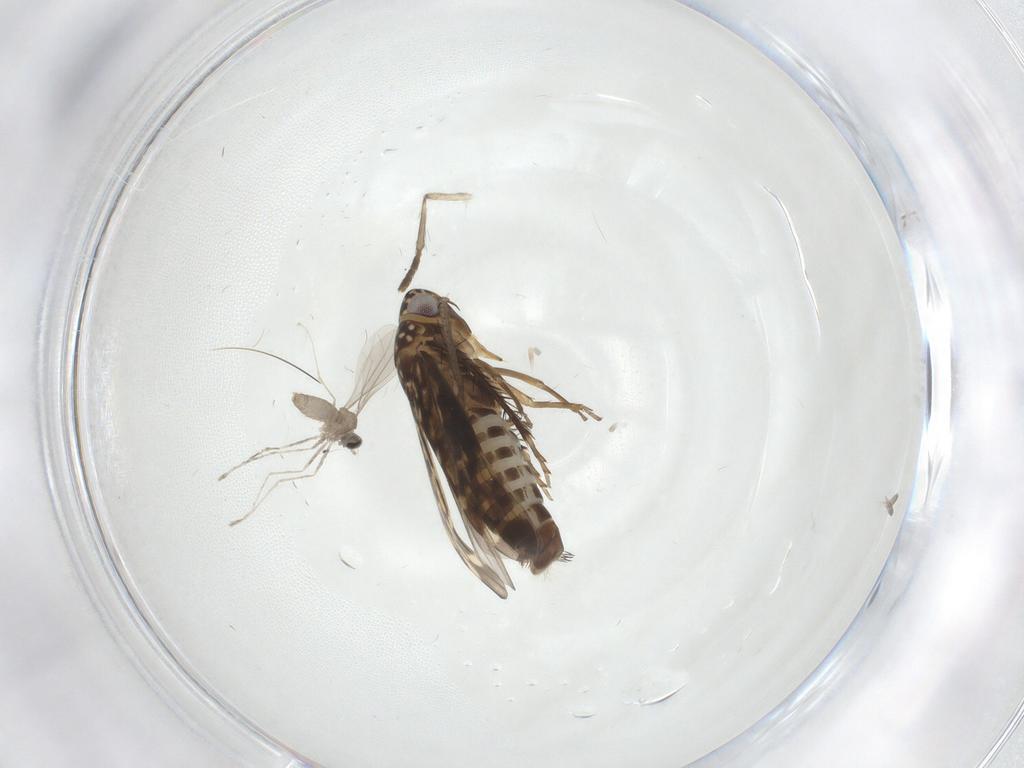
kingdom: Animalia
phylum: Arthropoda
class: Insecta
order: Hemiptera
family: Cicadellidae
